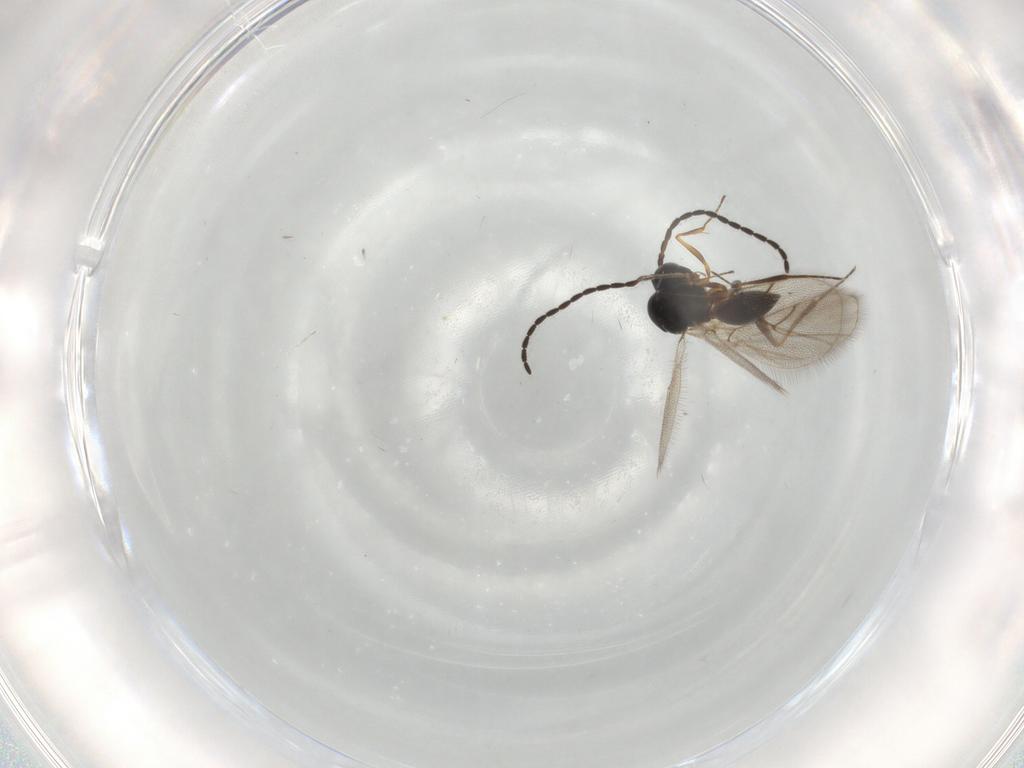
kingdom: Animalia
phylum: Arthropoda
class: Insecta
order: Hymenoptera
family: Figitidae
